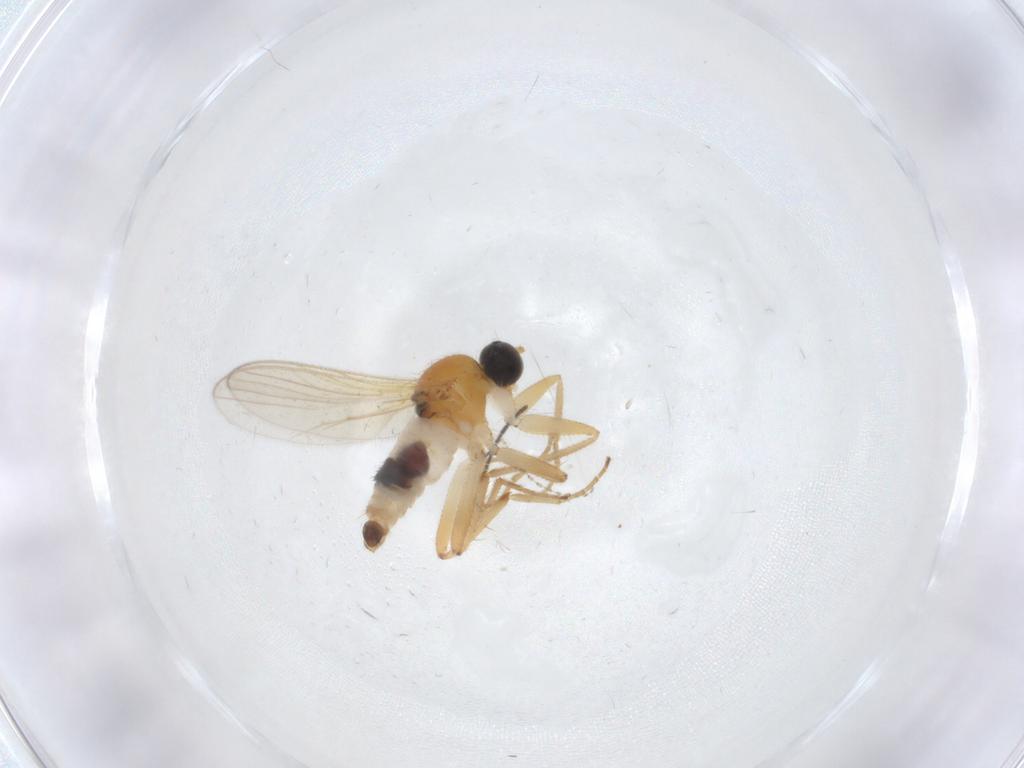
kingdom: Animalia
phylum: Arthropoda
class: Insecta
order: Diptera
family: Hybotidae
